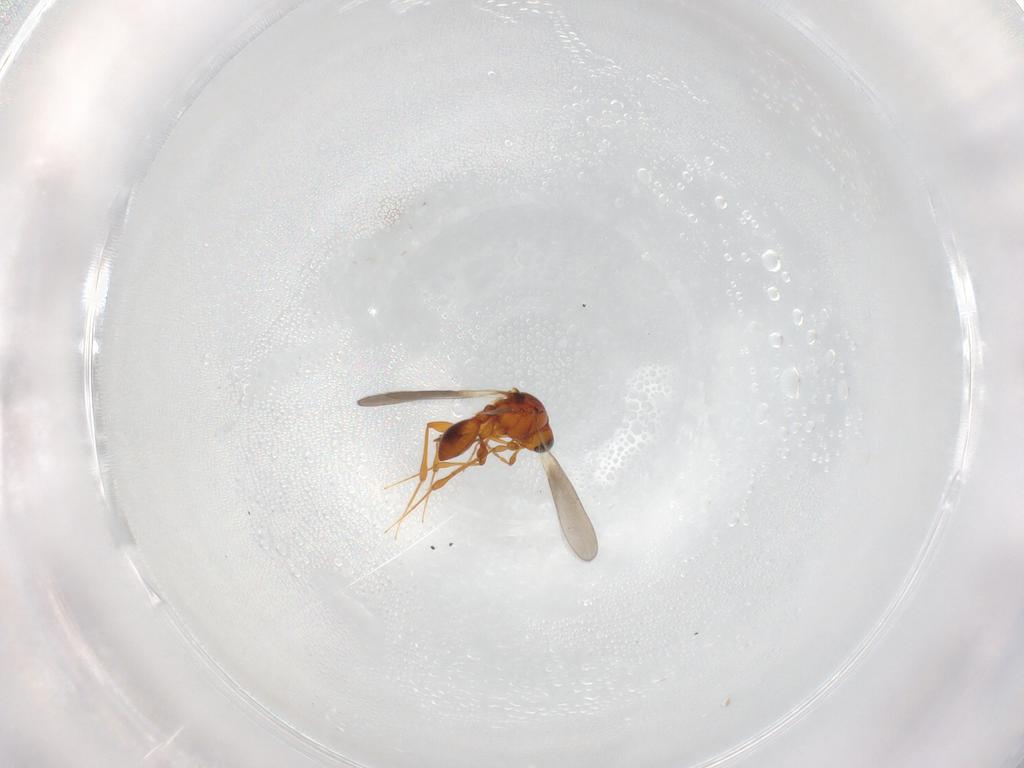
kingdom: Animalia
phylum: Arthropoda
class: Insecta
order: Hymenoptera
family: Platygastridae
